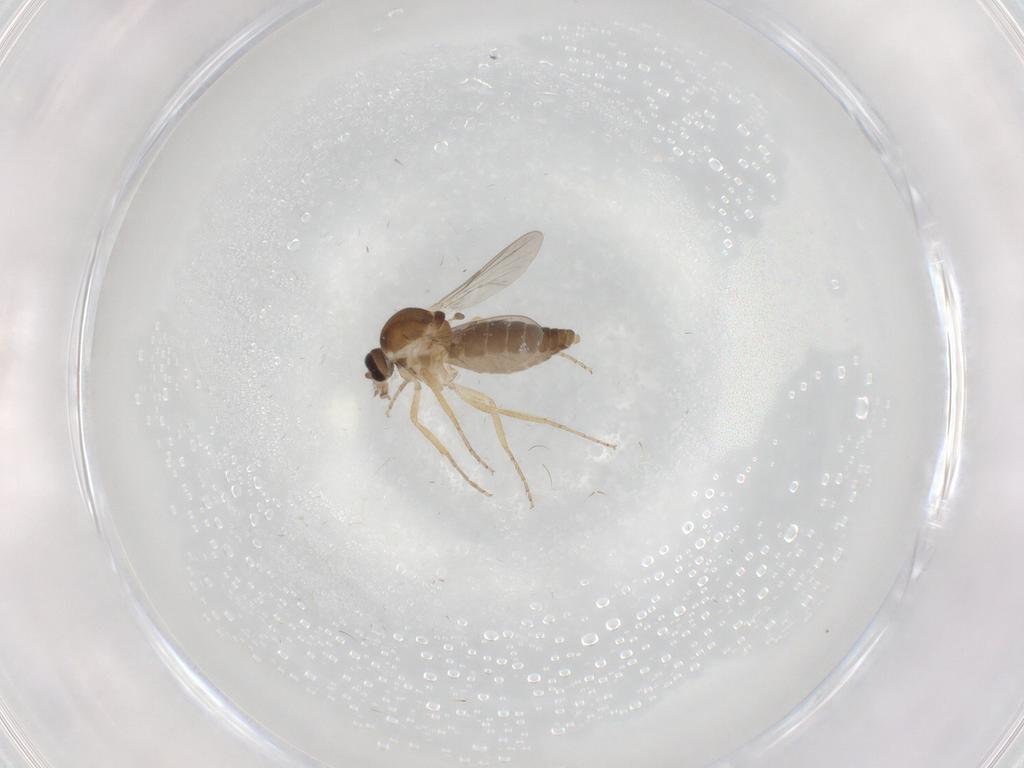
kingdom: Animalia
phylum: Arthropoda
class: Insecta
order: Diptera
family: Ceratopogonidae
